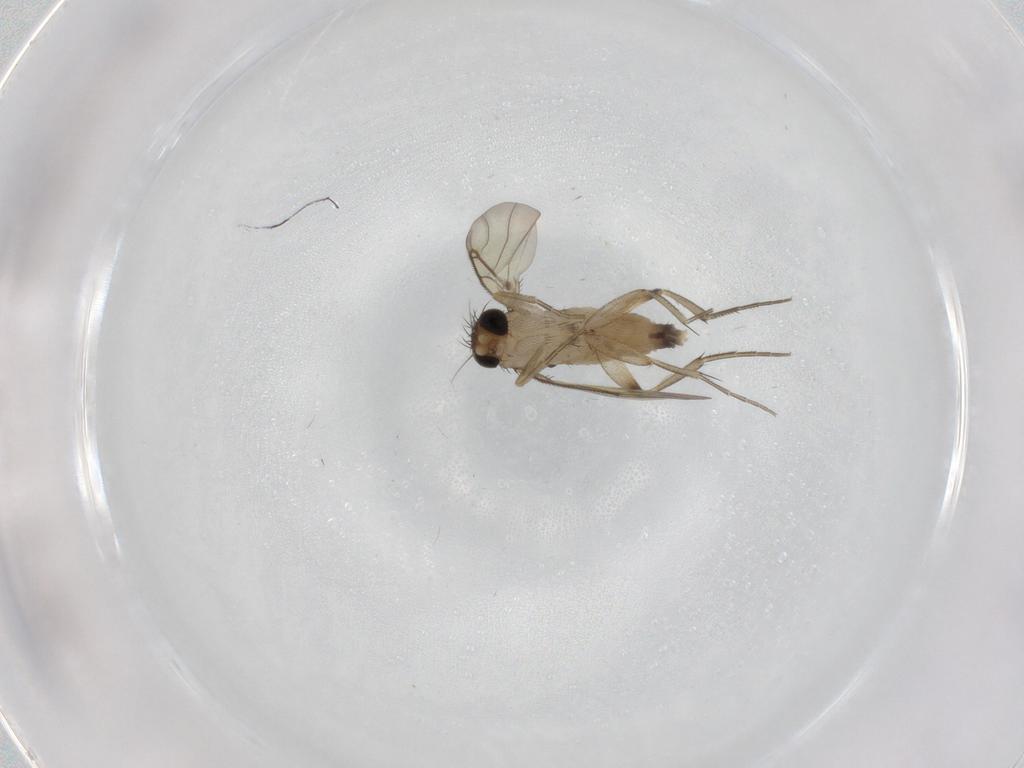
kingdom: Animalia
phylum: Arthropoda
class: Insecta
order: Diptera
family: Phoridae
